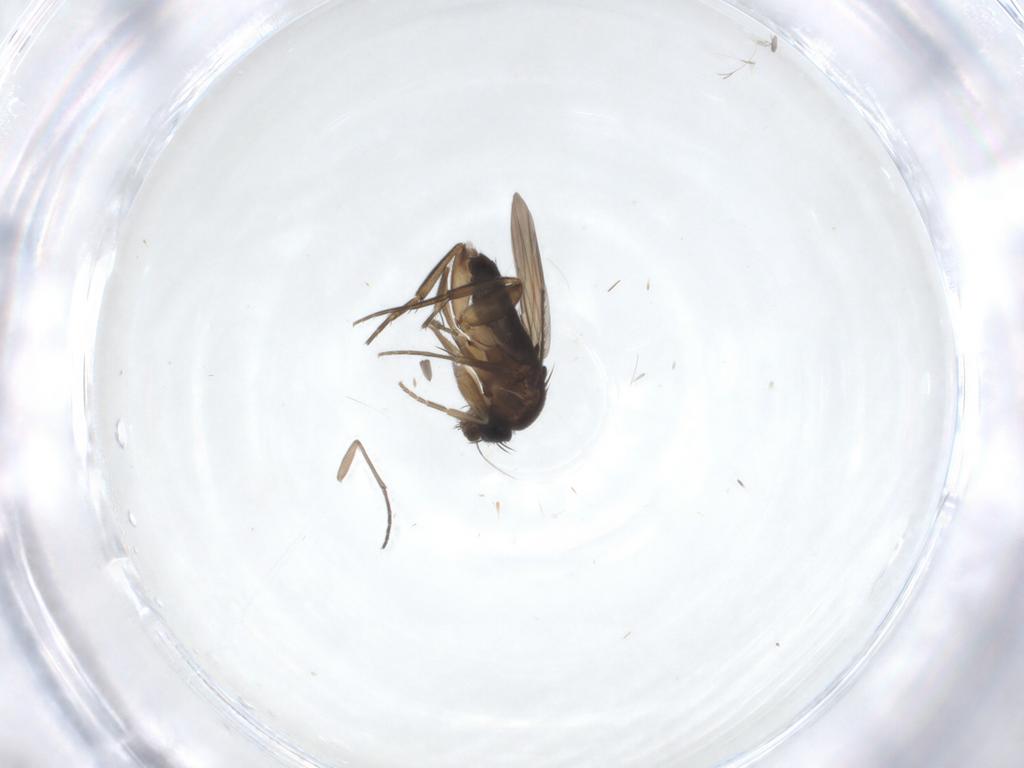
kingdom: Animalia
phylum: Arthropoda
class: Insecta
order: Diptera
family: Phoridae
